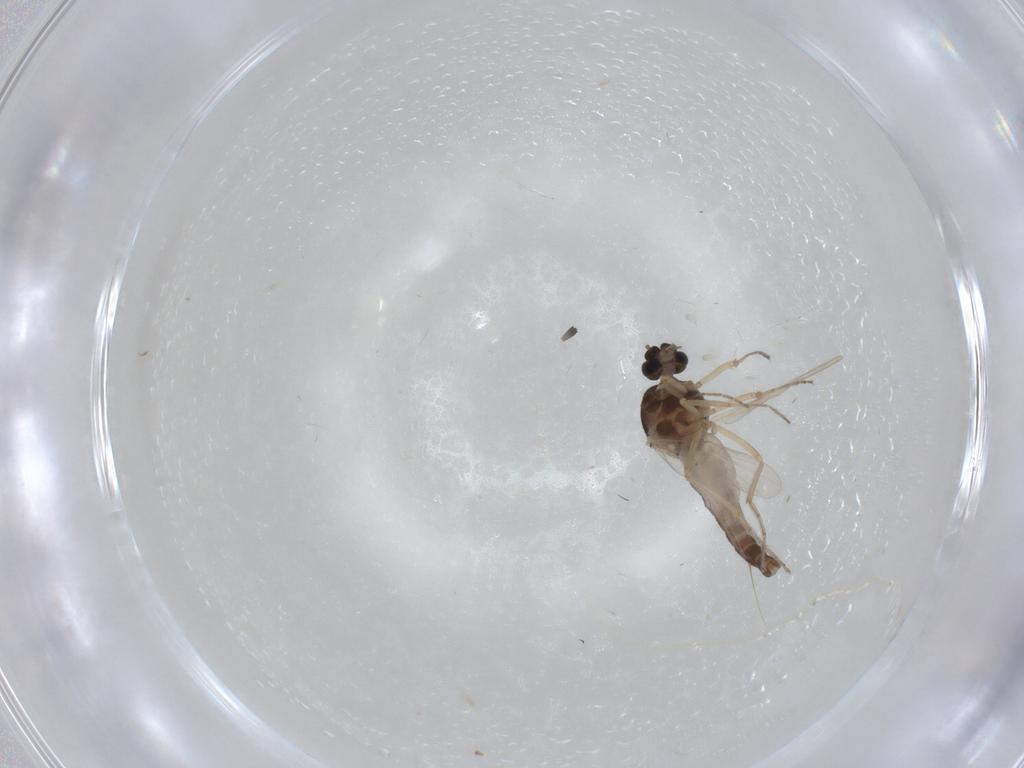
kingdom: Animalia
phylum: Arthropoda
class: Insecta
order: Diptera
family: Ceratopogonidae
